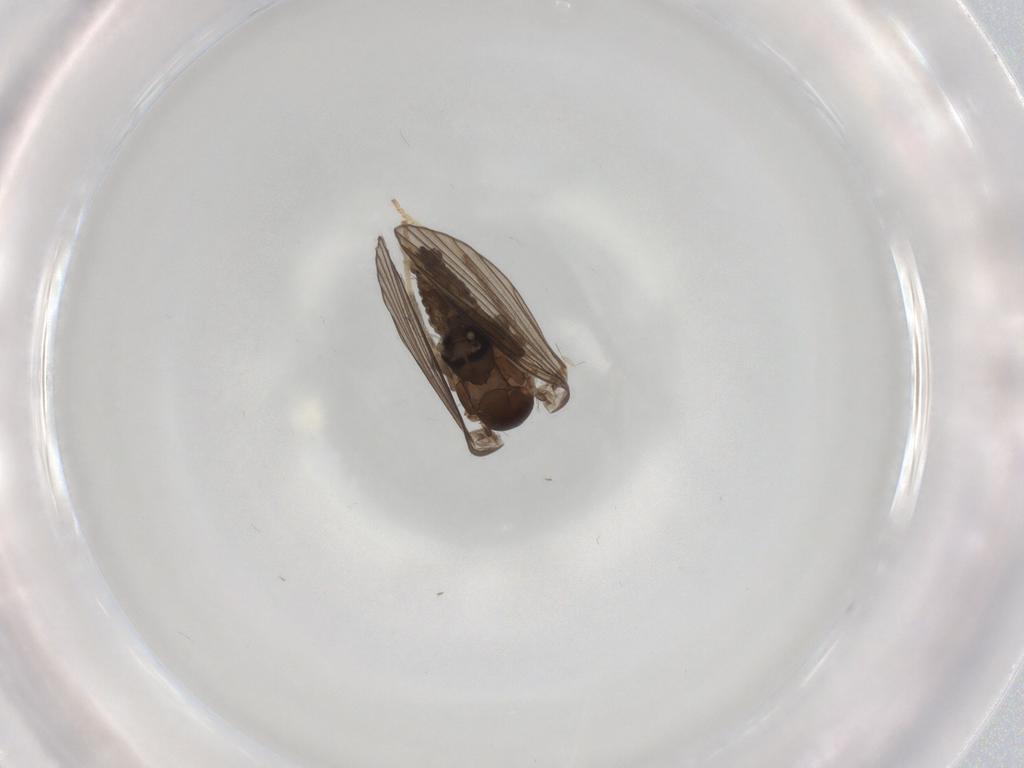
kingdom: Animalia
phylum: Arthropoda
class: Insecta
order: Diptera
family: Psychodidae
